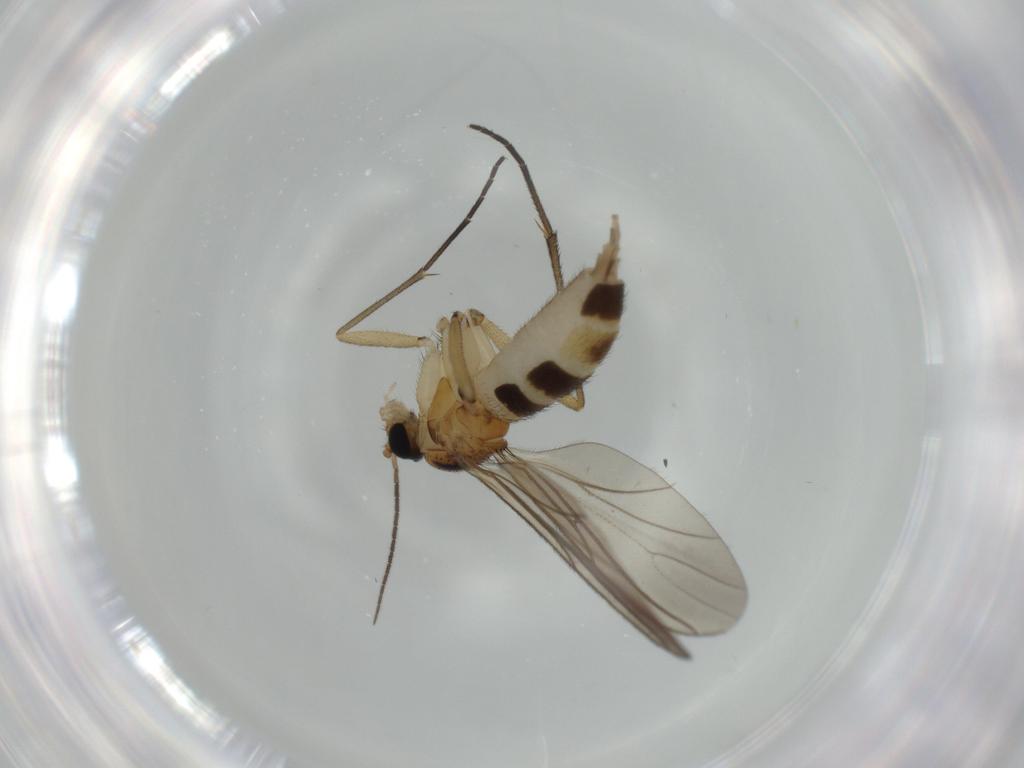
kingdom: Animalia
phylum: Arthropoda
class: Insecta
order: Diptera
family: Sciaridae
